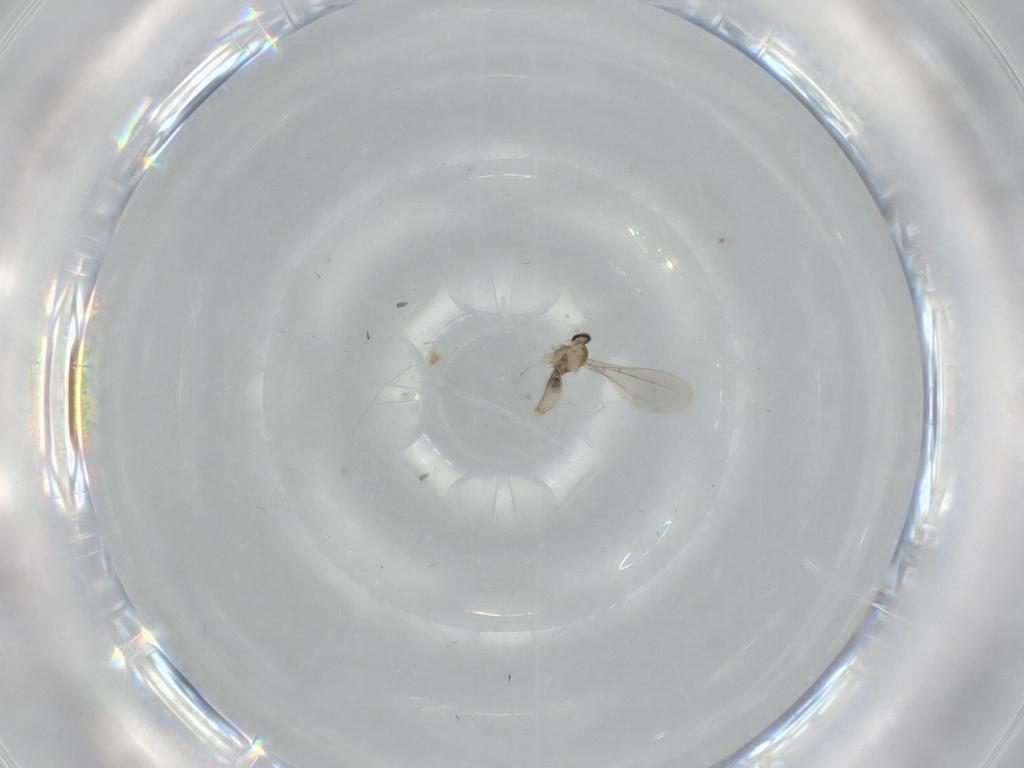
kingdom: Animalia
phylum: Arthropoda
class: Insecta
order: Diptera
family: Cecidomyiidae
